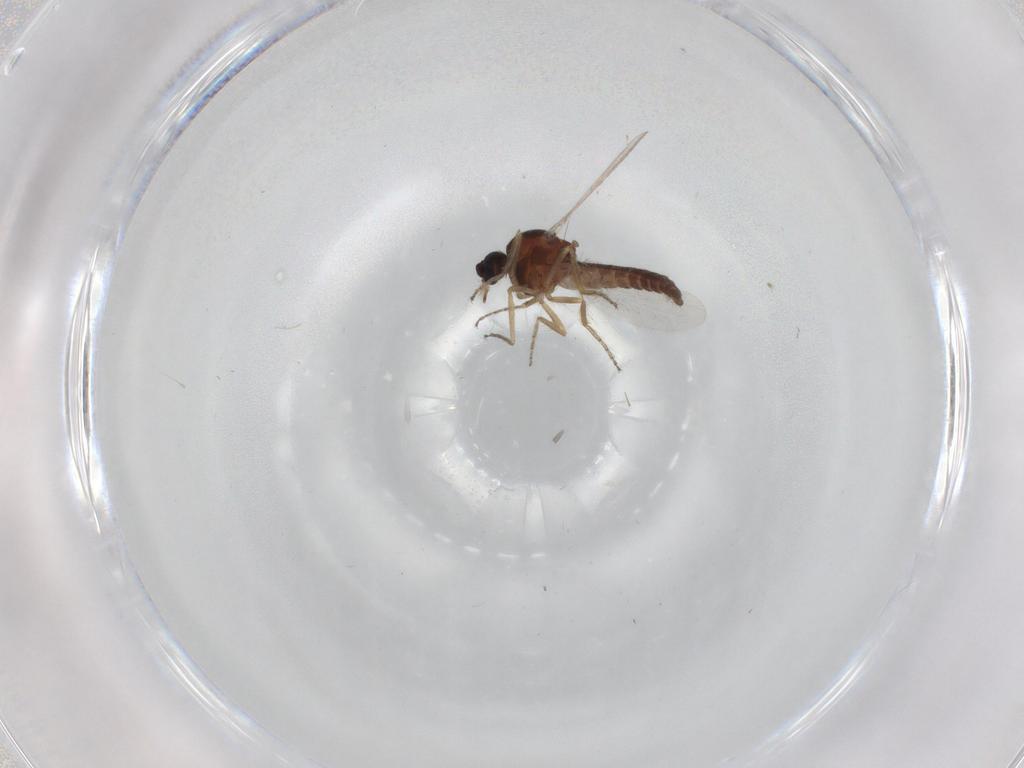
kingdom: Animalia
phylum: Arthropoda
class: Insecta
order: Diptera
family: Ceratopogonidae
